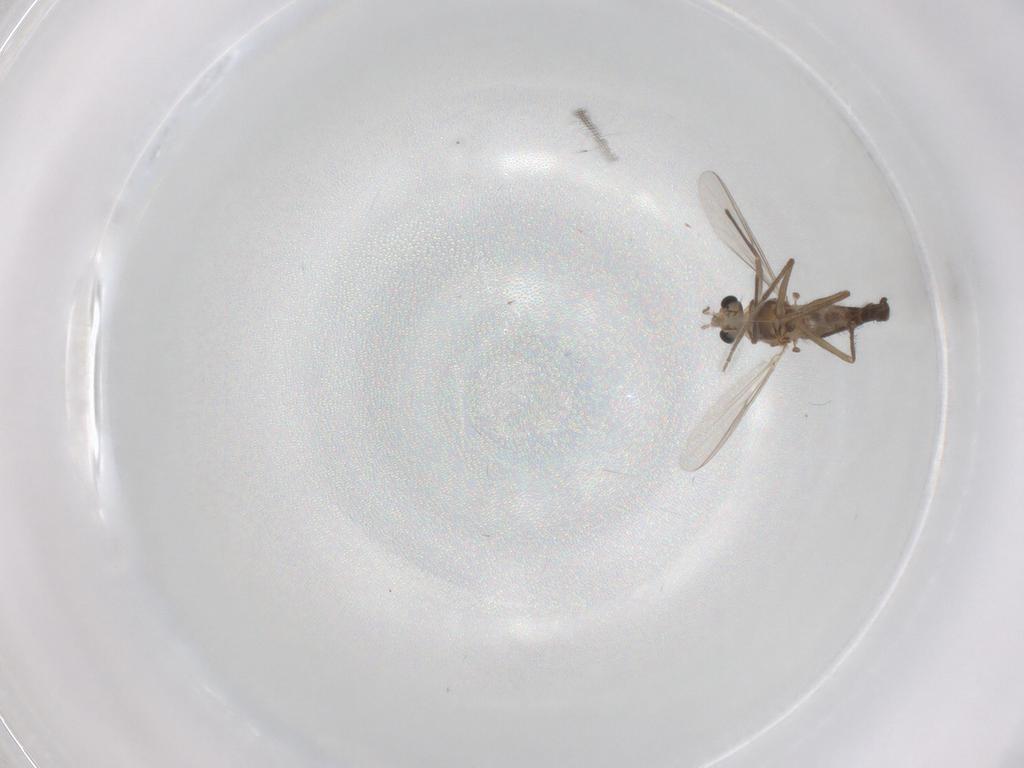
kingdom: Animalia
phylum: Arthropoda
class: Insecta
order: Diptera
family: Chironomidae
